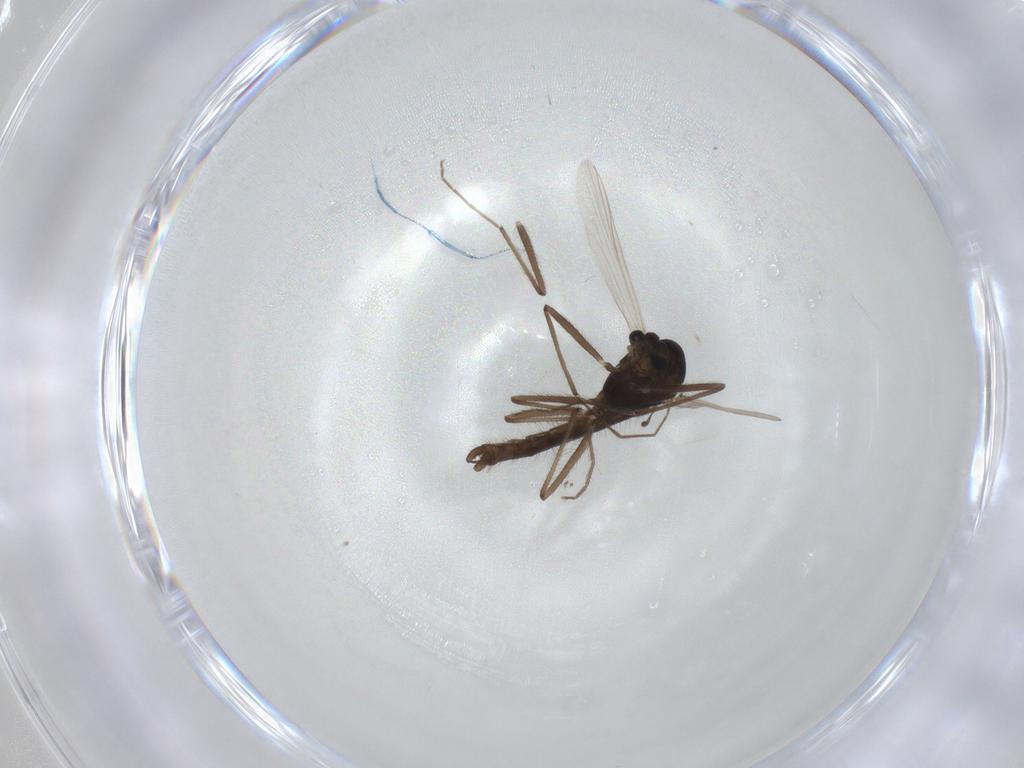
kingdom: Animalia
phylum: Arthropoda
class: Insecta
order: Diptera
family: Chironomidae
